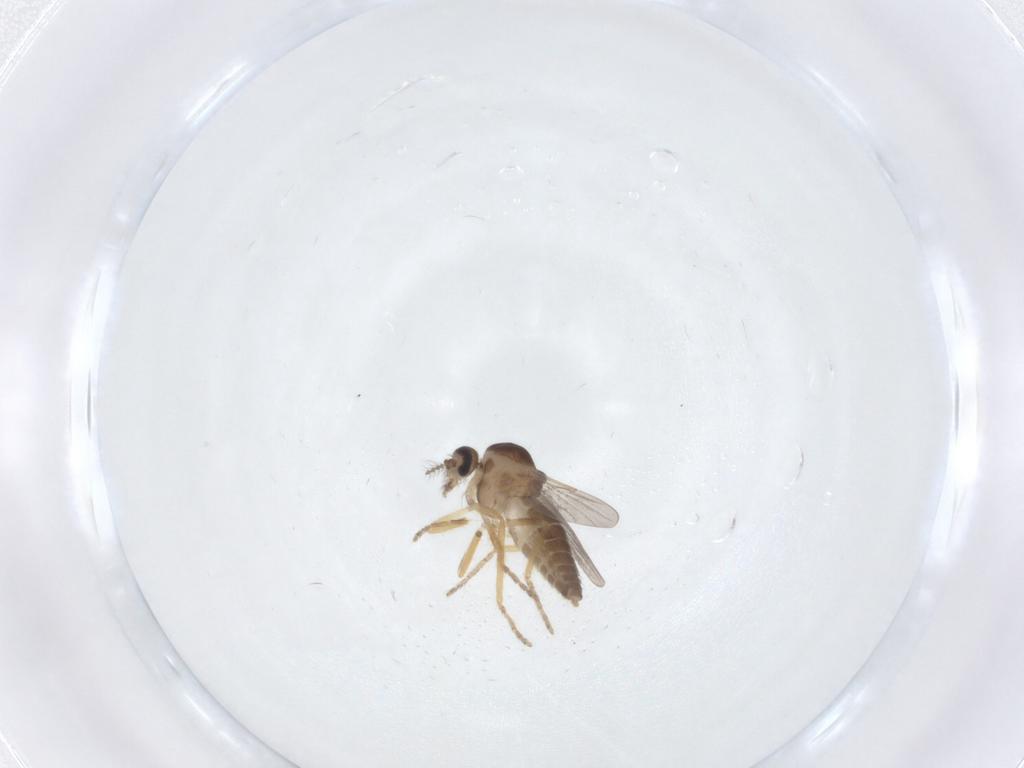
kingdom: Animalia
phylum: Arthropoda
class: Insecta
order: Diptera
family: Ceratopogonidae
